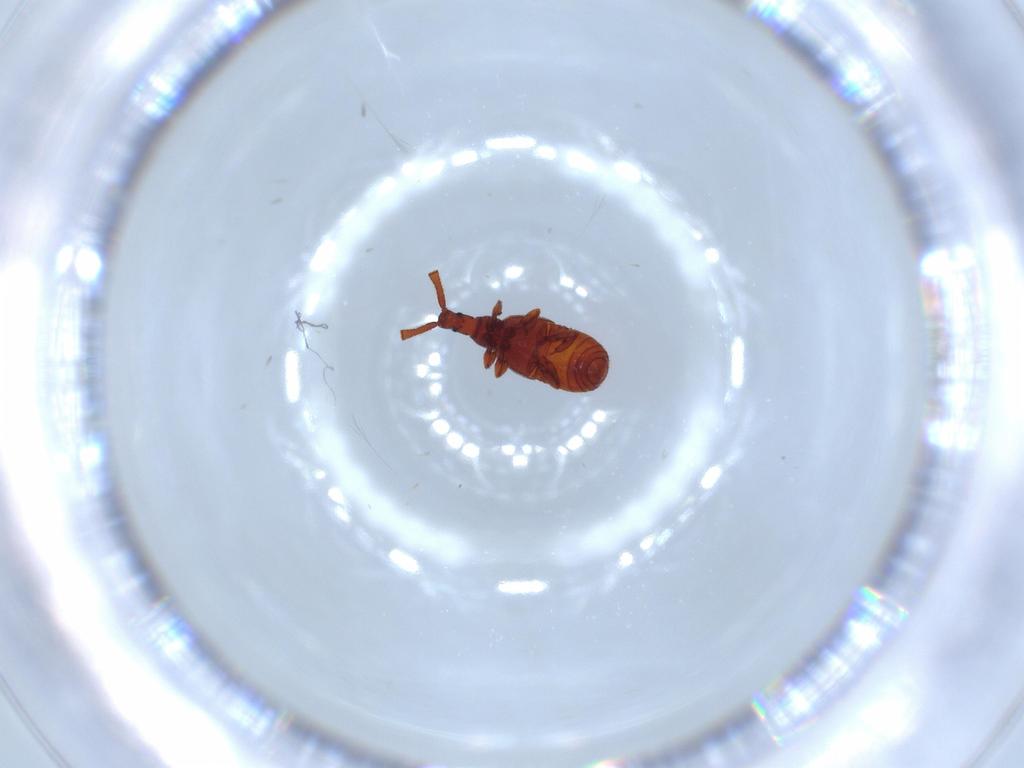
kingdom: Animalia
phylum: Arthropoda
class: Insecta
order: Coleoptera
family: Staphylinidae
